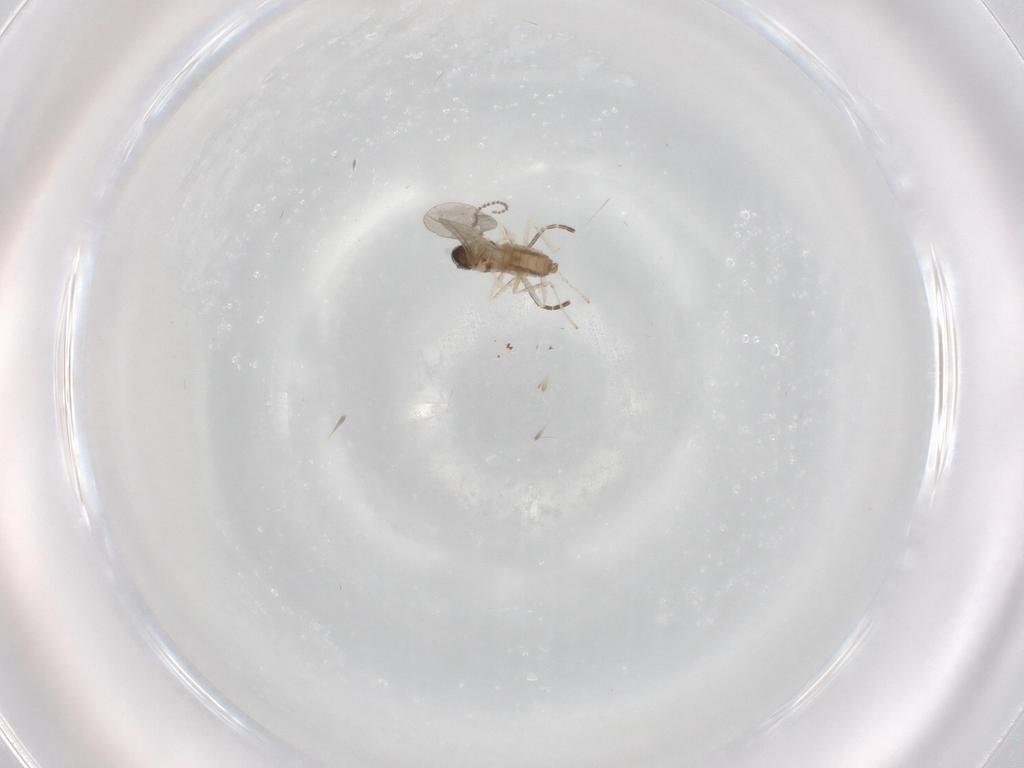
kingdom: Animalia
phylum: Arthropoda
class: Insecta
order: Diptera
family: Cecidomyiidae
